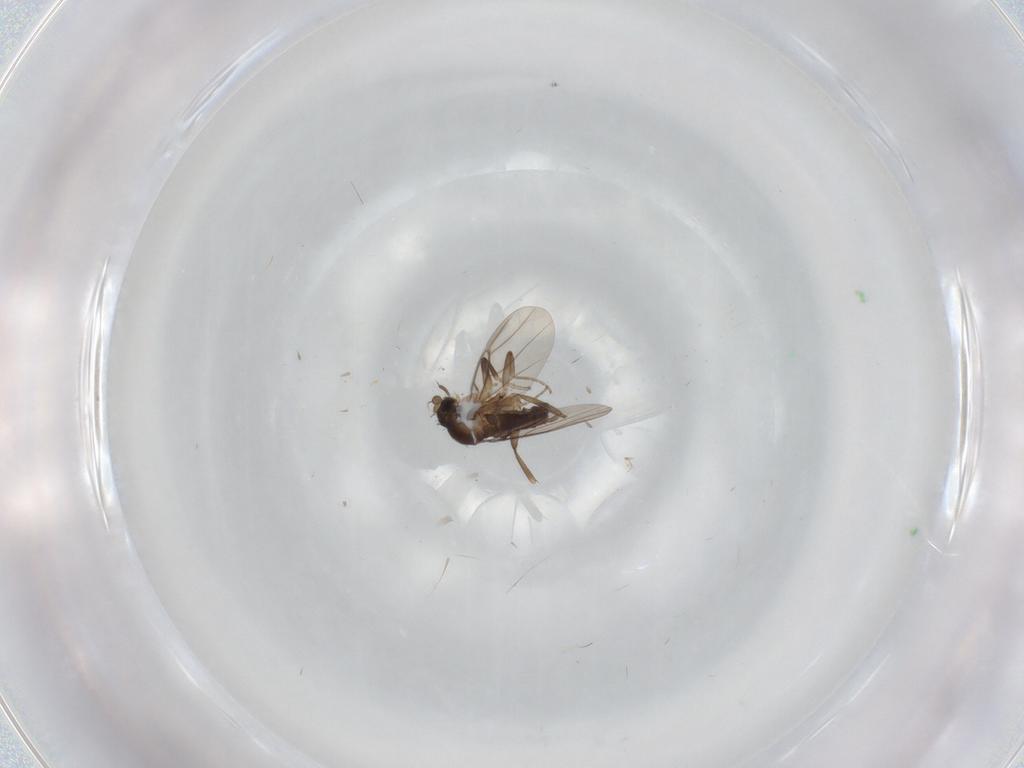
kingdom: Animalia
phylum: Arthropoda
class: Insecta
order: Diptera
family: Cecidomyiidae
